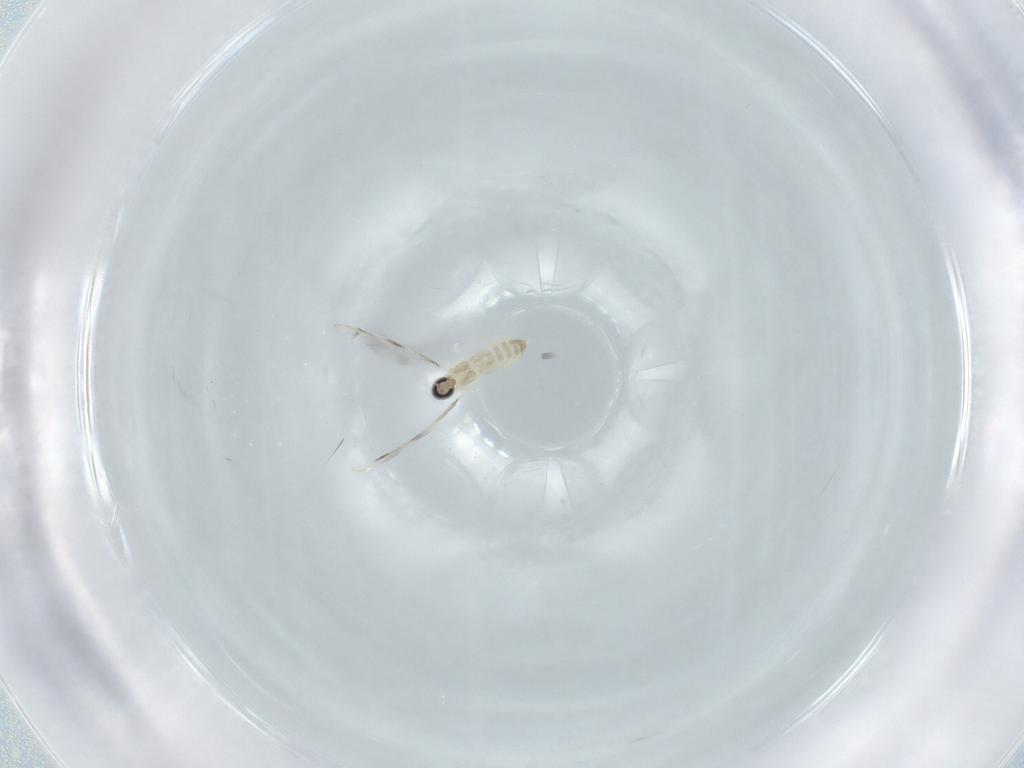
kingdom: Animalia
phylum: Arthropoda
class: Insecta
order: Diptera
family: Cecidomyiidae
